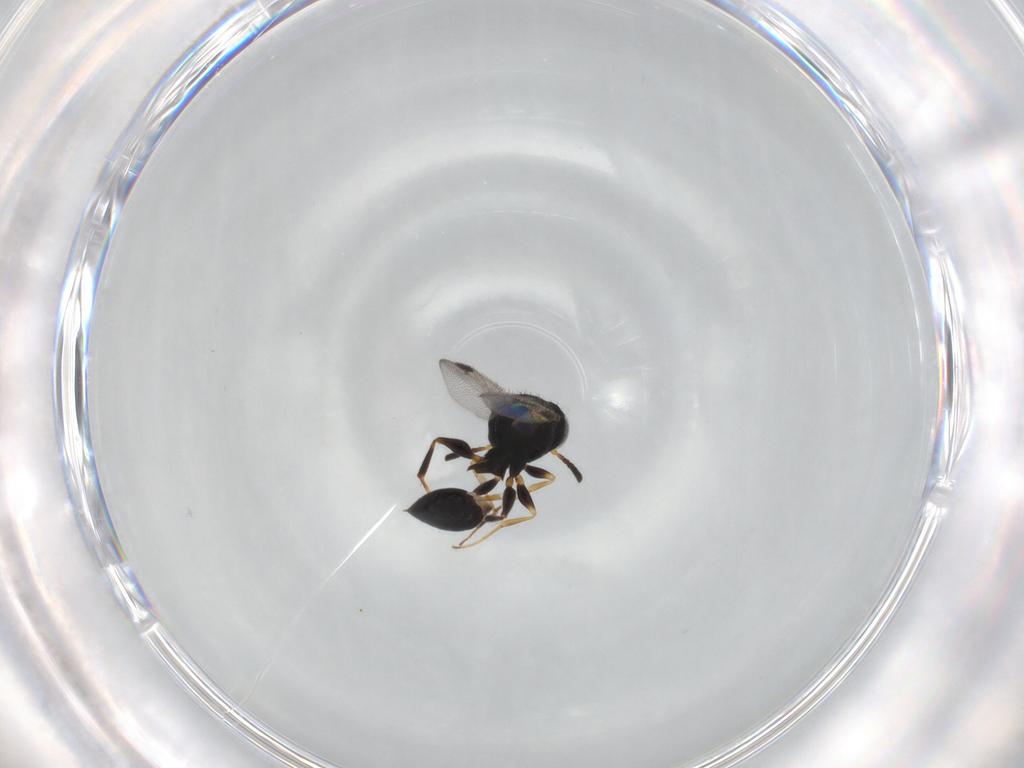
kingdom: Animalia
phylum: Arthropoda
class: Insecta
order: Hymenoptera
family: Dryinidae
